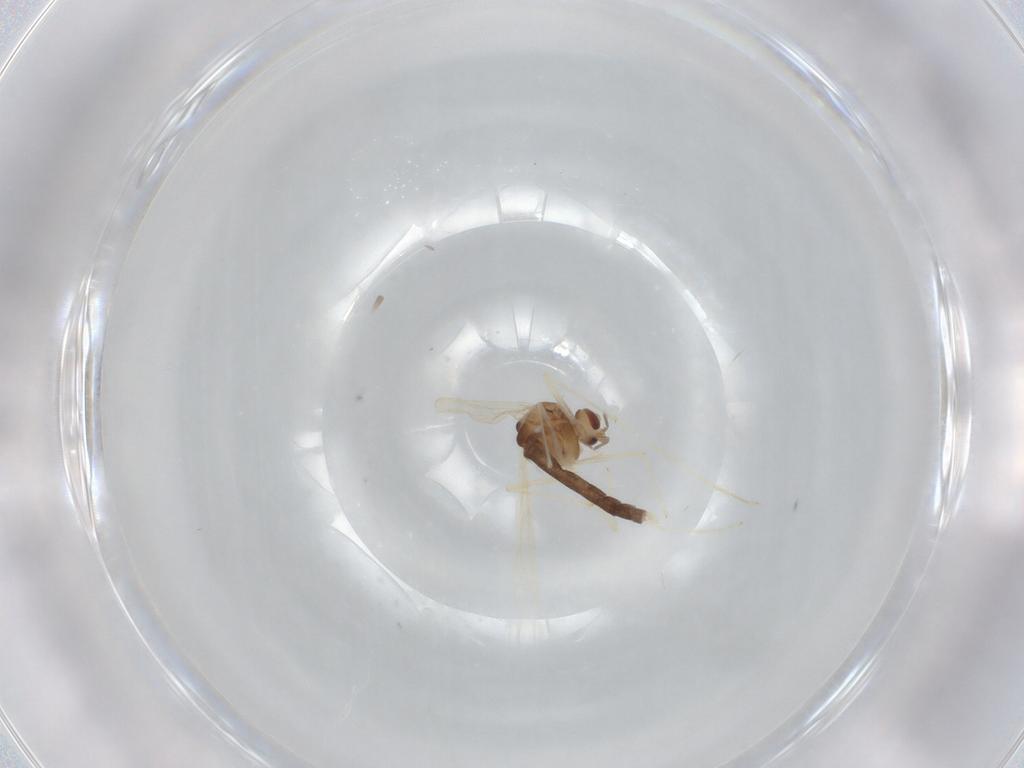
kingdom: Animalia
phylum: Arthropoda
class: Insecta
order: Diptera
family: Chironomidae
